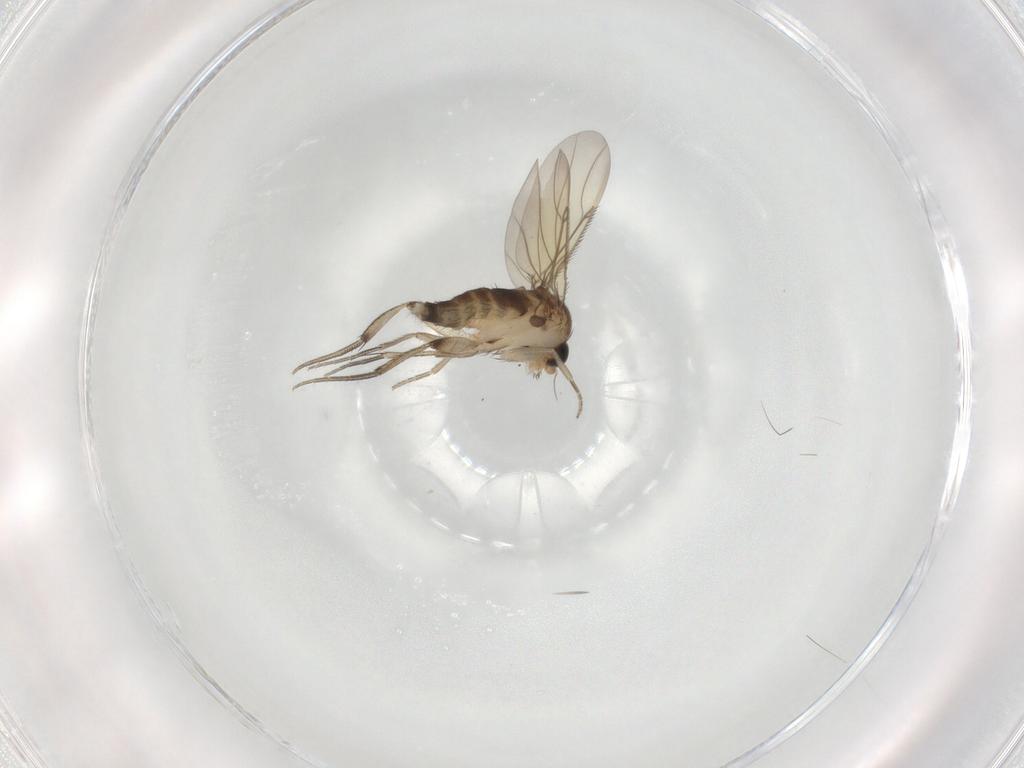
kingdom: Animalia
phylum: Arthropoda
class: Insecta
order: Diptera
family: Phoridae
